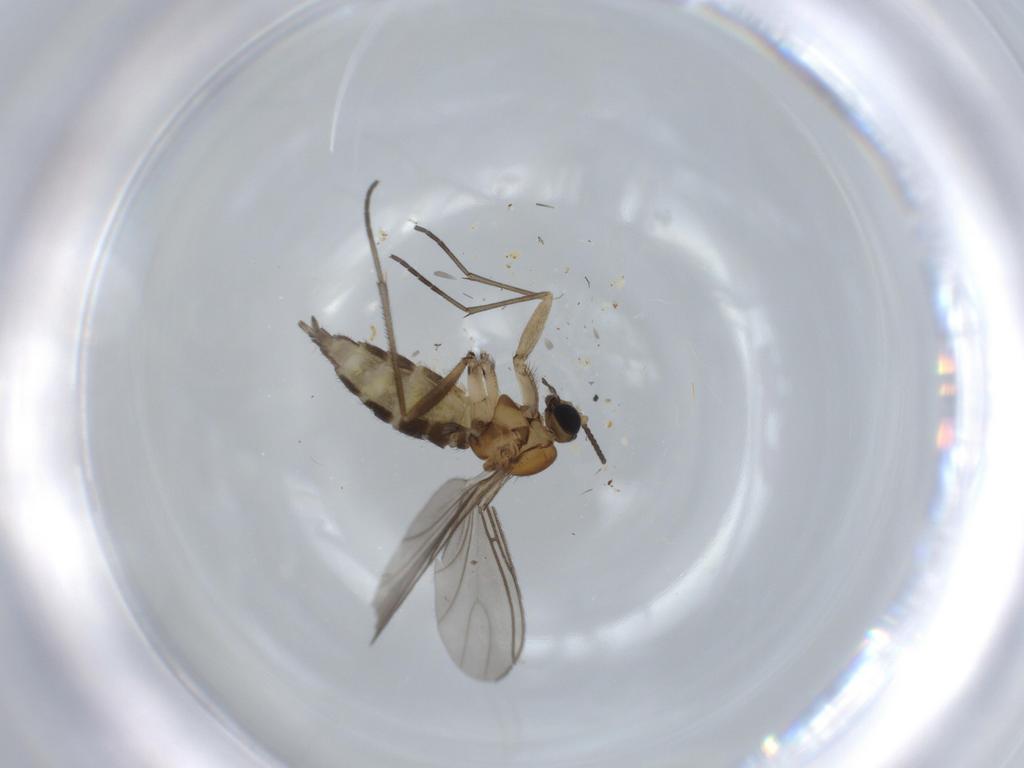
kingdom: Animalia
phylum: Arthropoda
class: Insecta
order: Diptera
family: Sciaridae
